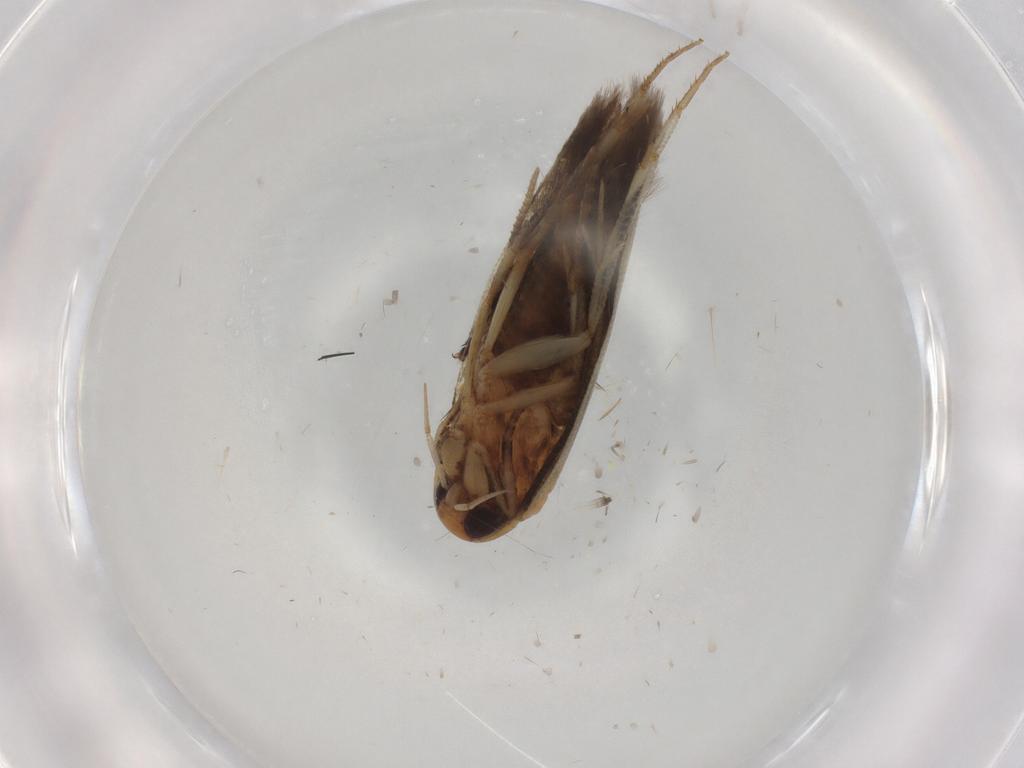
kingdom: Animalia
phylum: Arthropoda
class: Insecta
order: Lepidoptera
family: Cosmopterigidae
